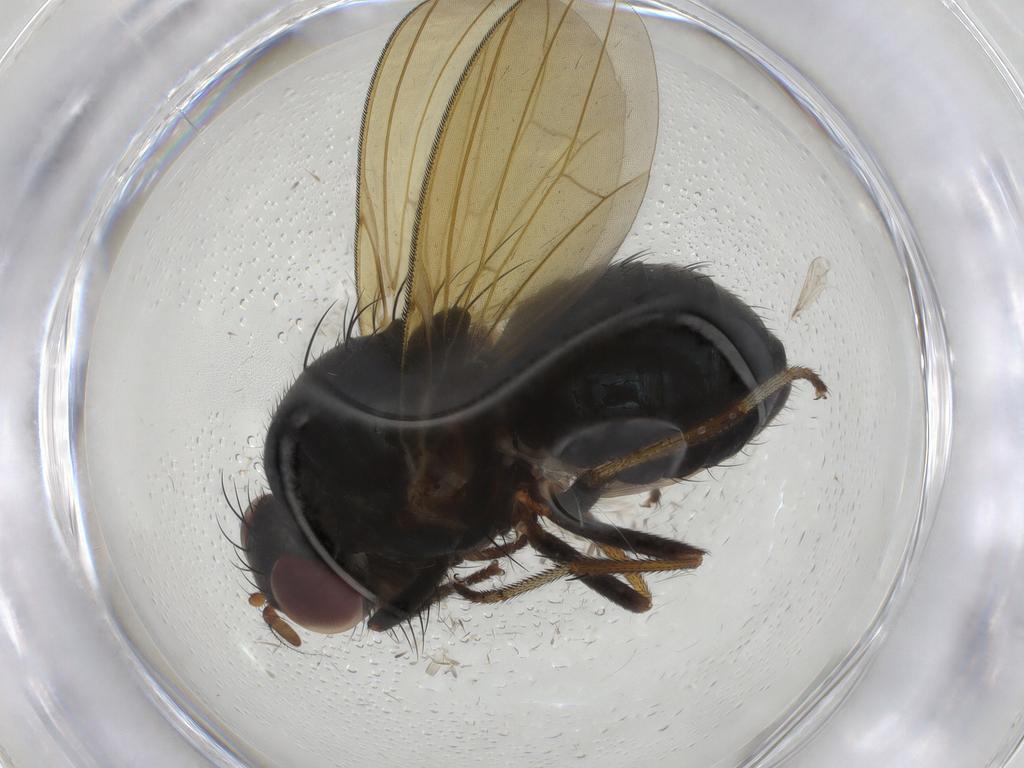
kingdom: Animalia
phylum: Arthropoda
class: Insecta
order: Diptera
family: Lauxaniidae
